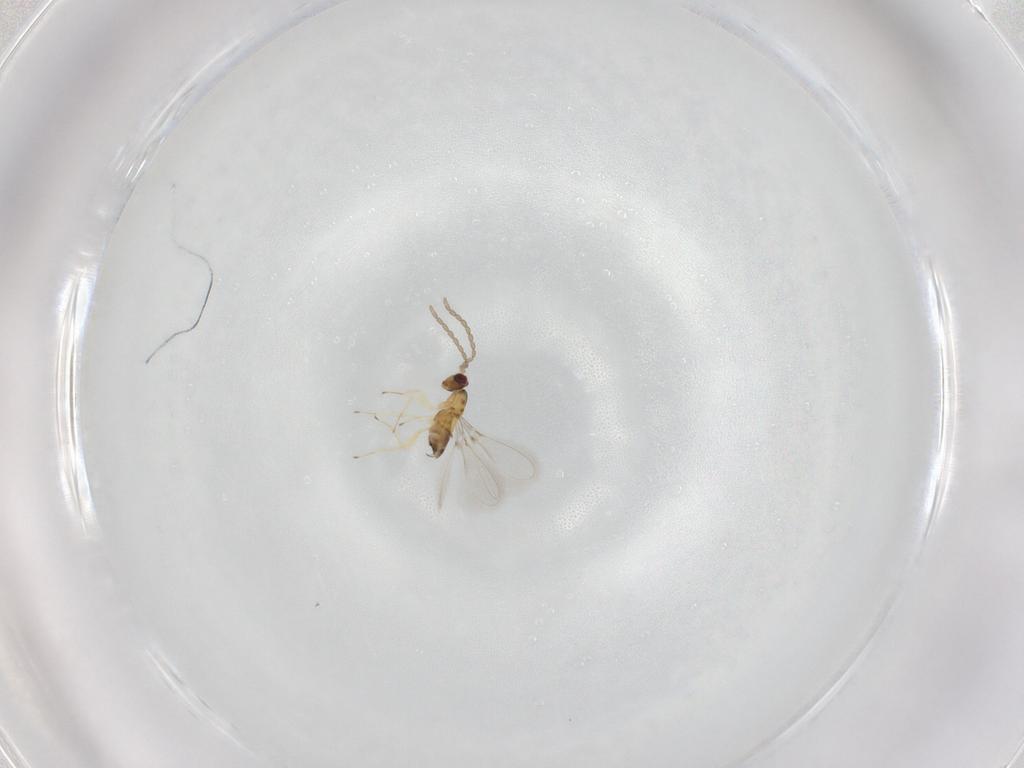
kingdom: Animalia
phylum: Arthropoda
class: Insecta
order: Hymenoptera
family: Mymaridae
